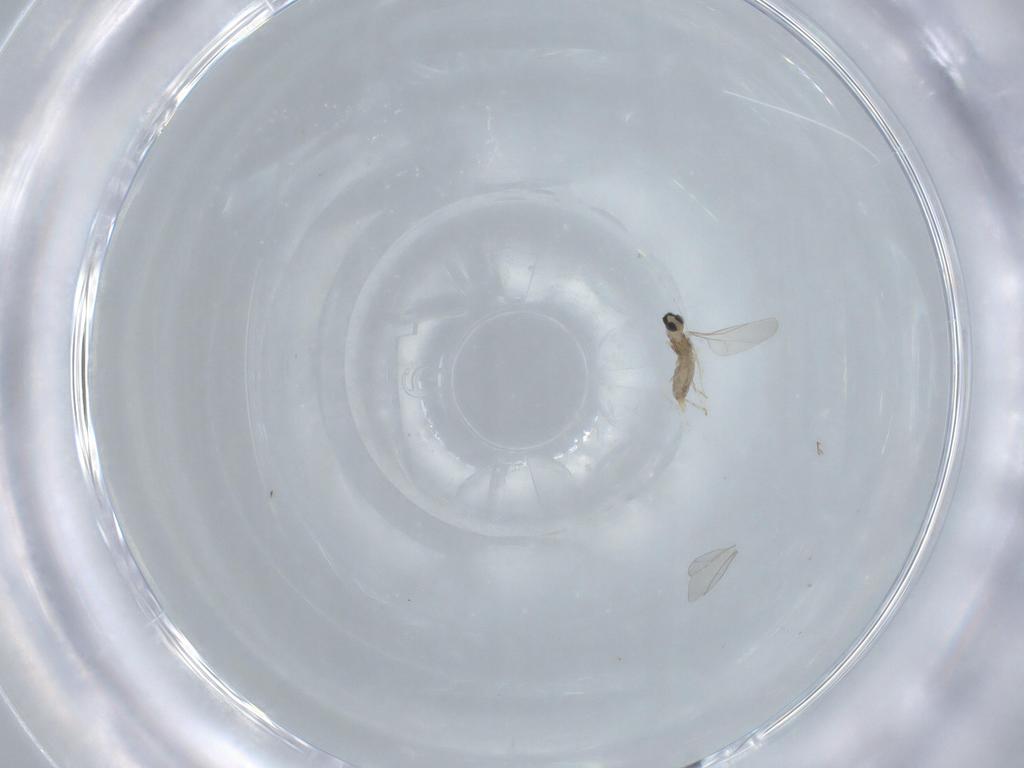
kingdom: Animalia
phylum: Arthropoda
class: Insecta
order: Diptera
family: Cecidomyiidae
